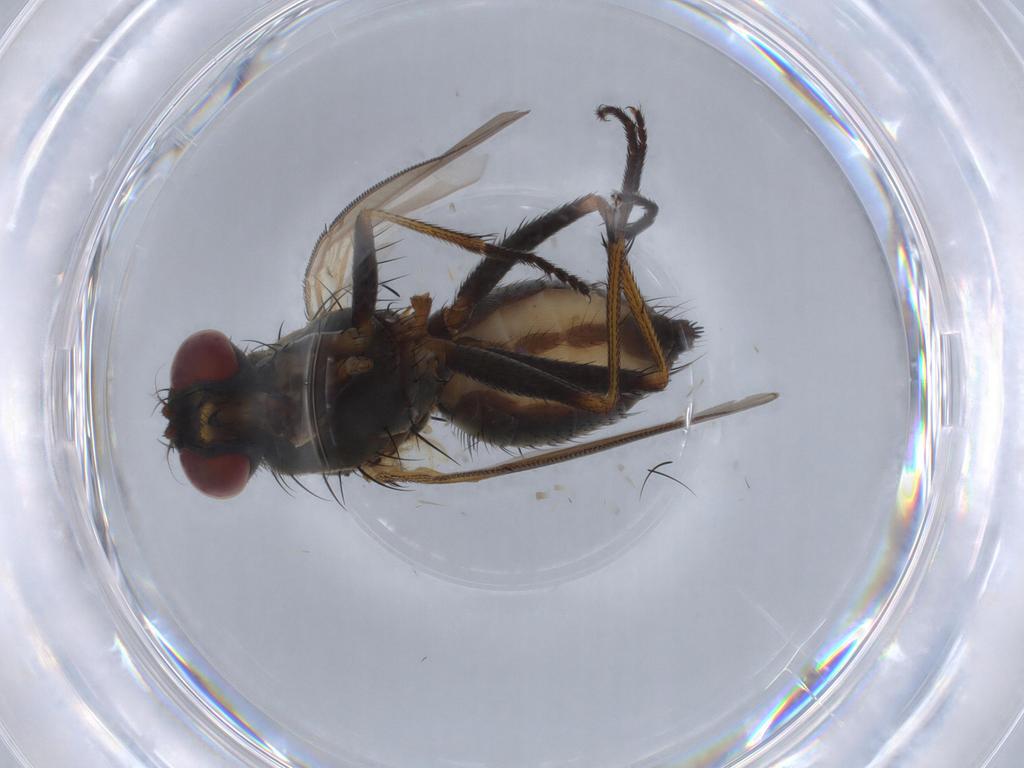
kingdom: Animalia
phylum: Arthropoda
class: Insecta
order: Diptera
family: Muscidae
